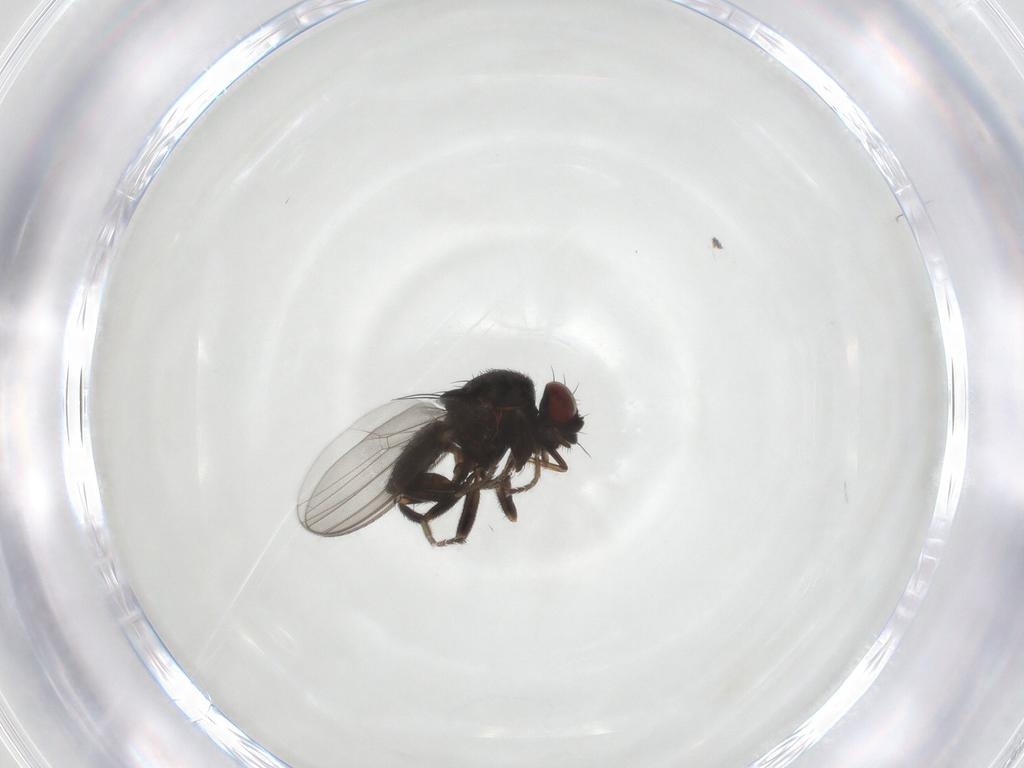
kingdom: Animalia
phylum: Arthropoda
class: Insecta
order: Diptera
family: Milichiidae
